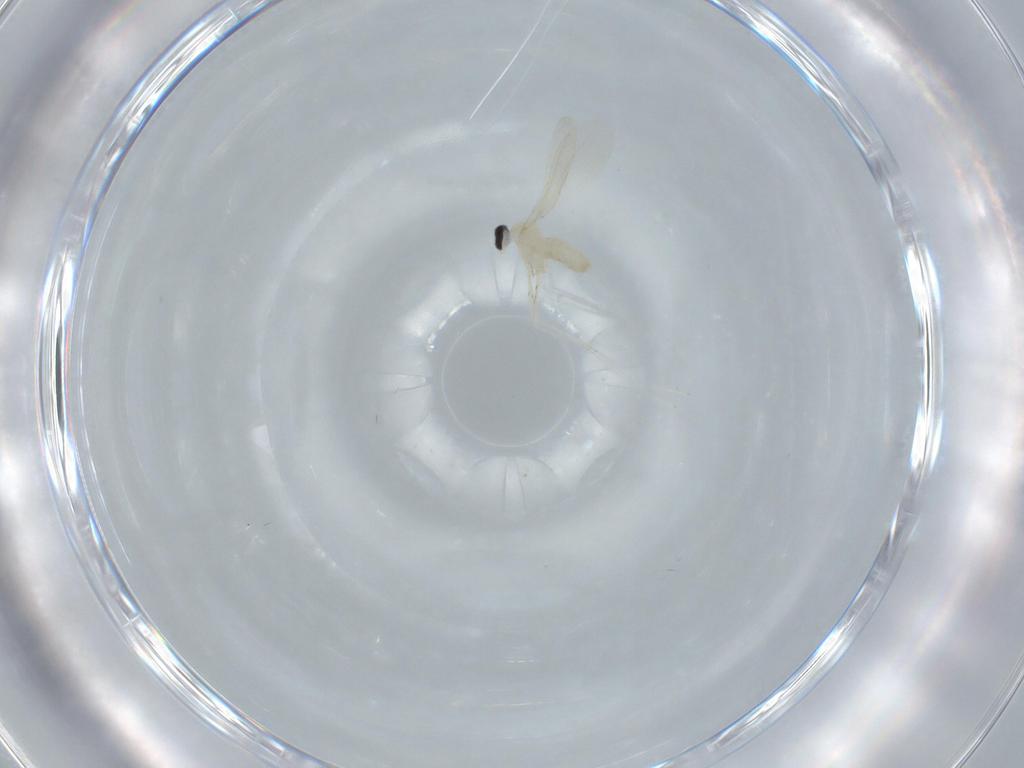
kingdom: Animalia
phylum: Arthropoda
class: Insecta
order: Diptera
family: Cecidomyiidae
